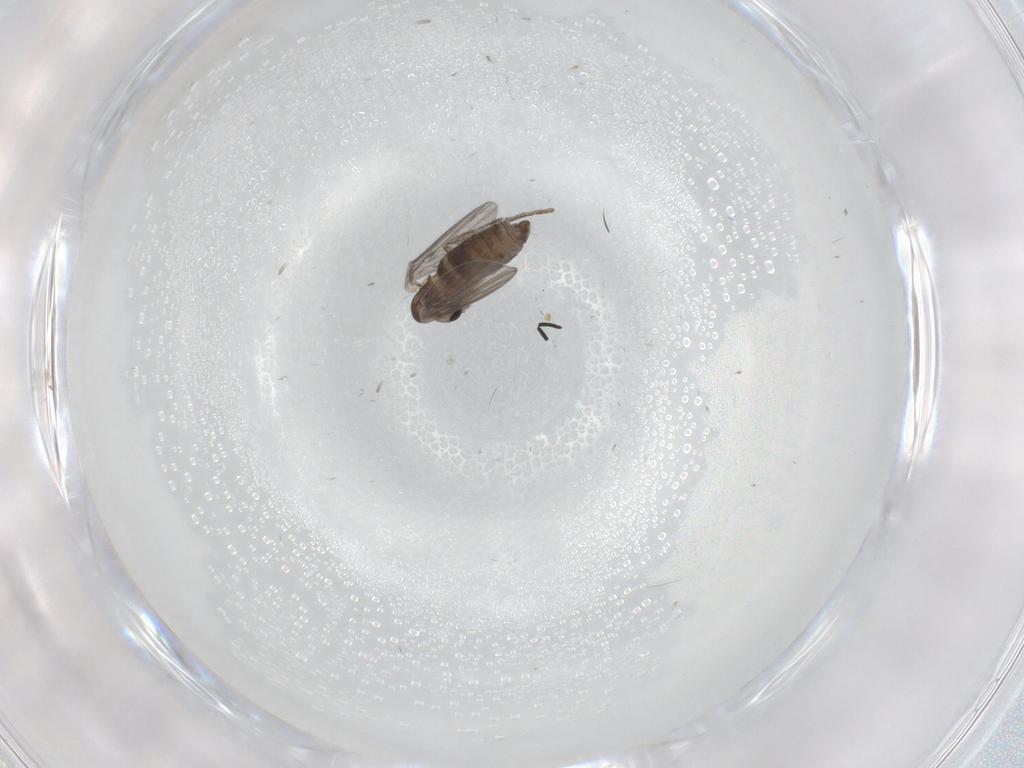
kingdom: Animalia
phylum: Arthropoda
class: Insecta
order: Diptera
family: Psychodidae
